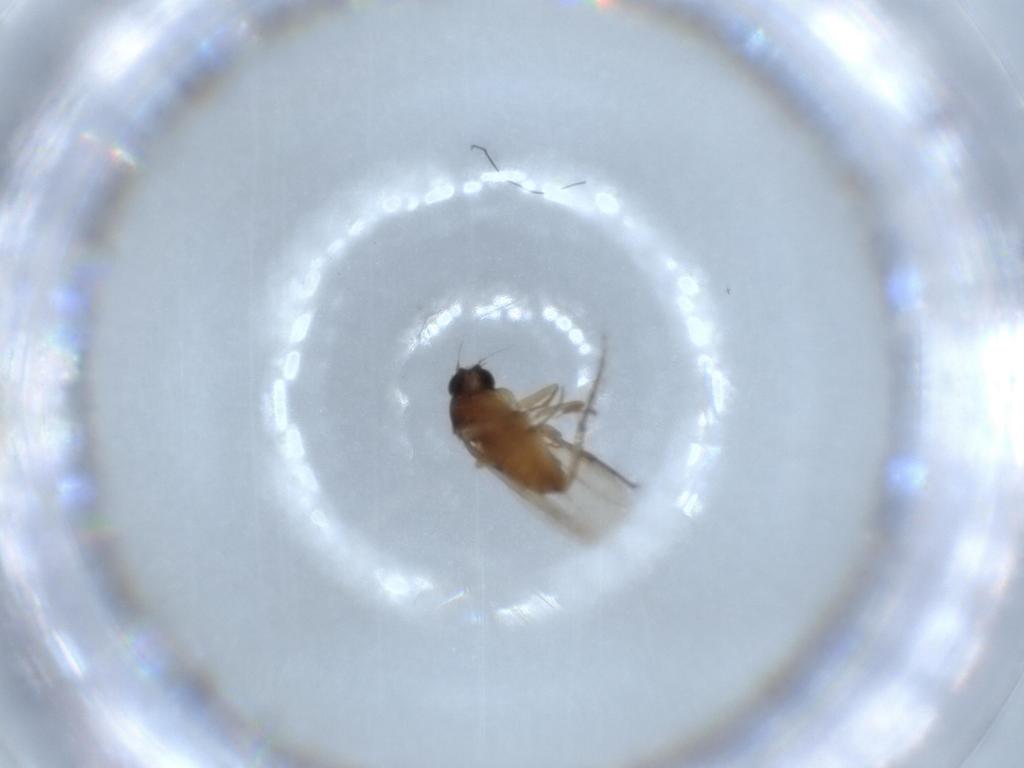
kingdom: Animalia
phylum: Arthropoda
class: Insecta
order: Diptera
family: Phoridae
